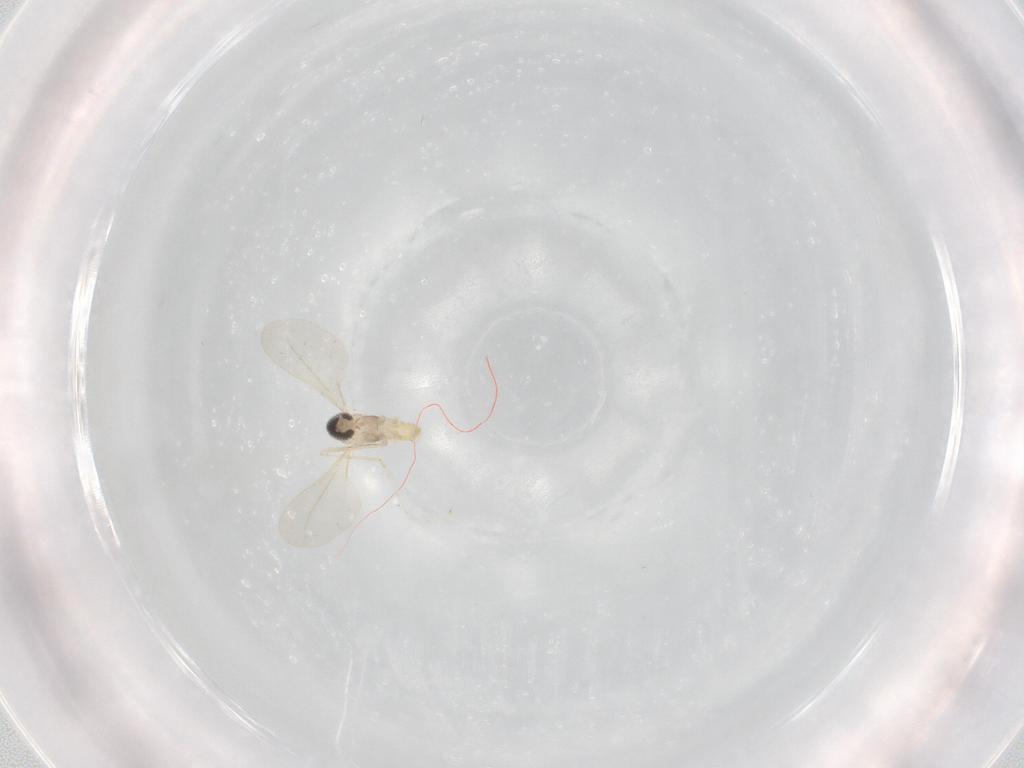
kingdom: Animalia
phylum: Arthropoda
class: Insecta
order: Diptera
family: Cecidomyiidae
